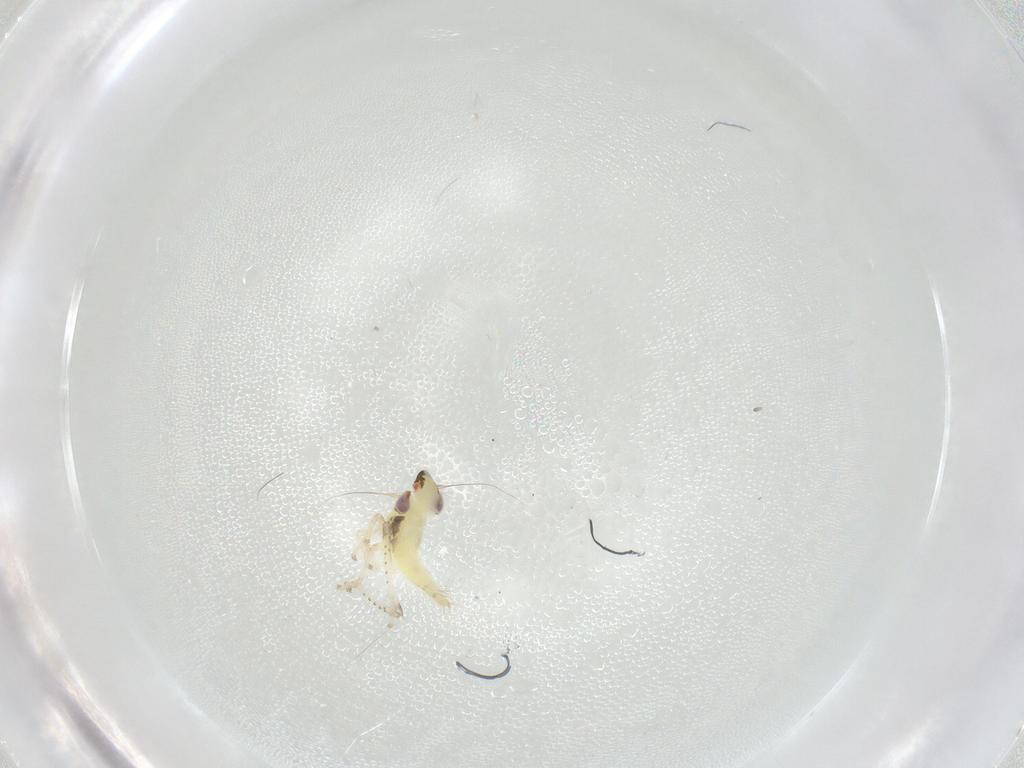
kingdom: Animalia
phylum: Arthropoda
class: Insecta
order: Hemiptera
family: Cicadellidae
